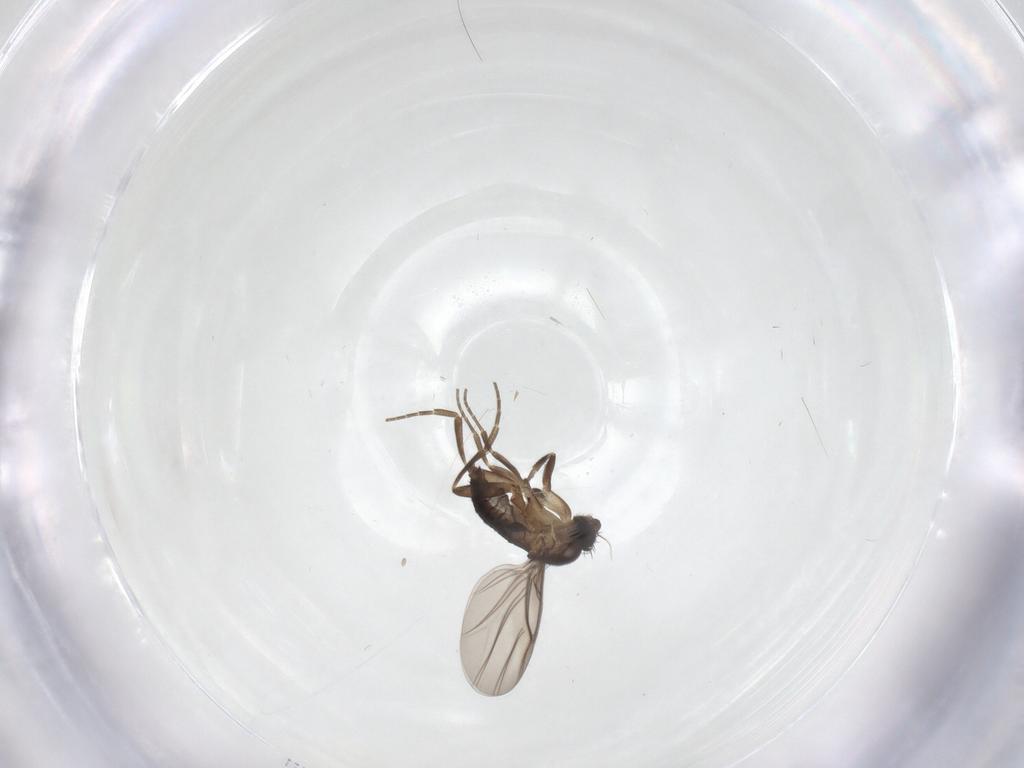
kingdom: Animalia
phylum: Arthropoda
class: Insecta
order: Diptera
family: Phoridae
